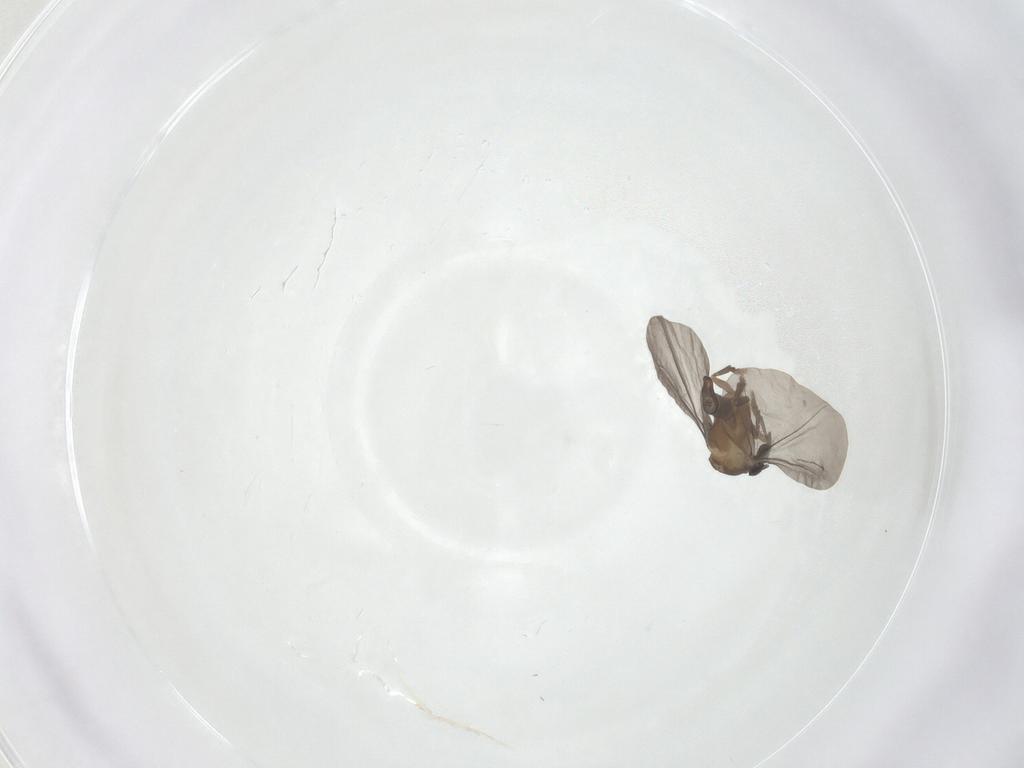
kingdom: Animalia
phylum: Arthropoda
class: Insecta
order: Strepsiptera
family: Myrmecolacidae
